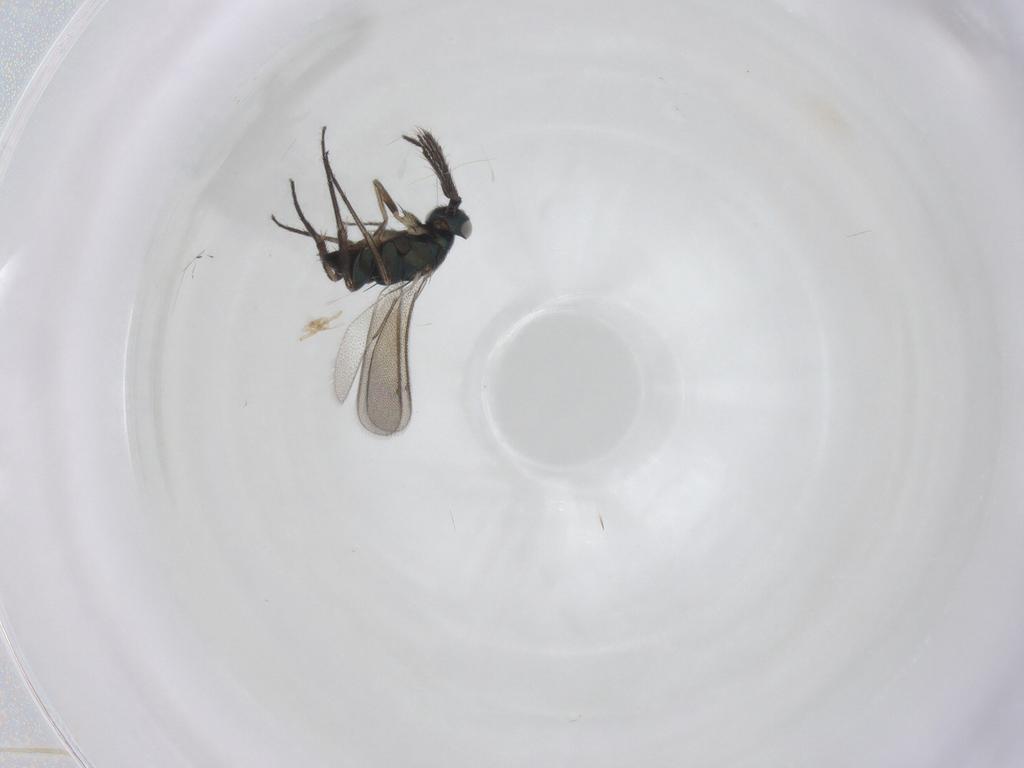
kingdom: Animalia
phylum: Arthropoda
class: Insecta
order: Hymenoptera
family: Eulophidae
